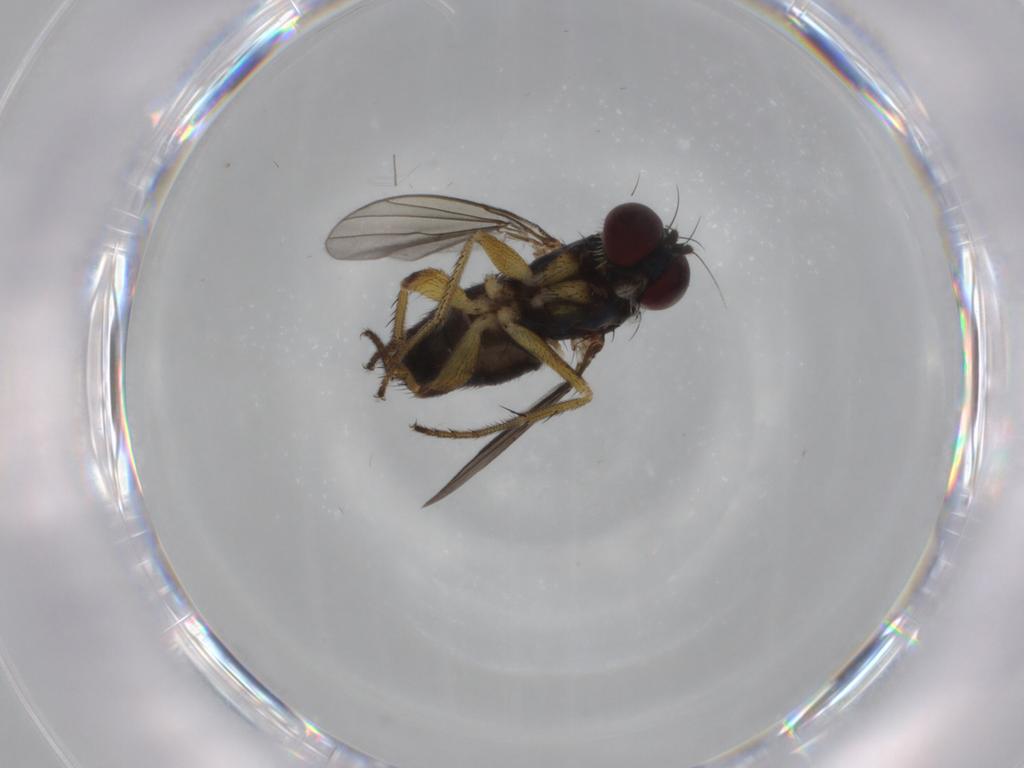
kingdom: Animalia
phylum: Arthropoda
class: Insecta
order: Diptera
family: Dolichopodidae
